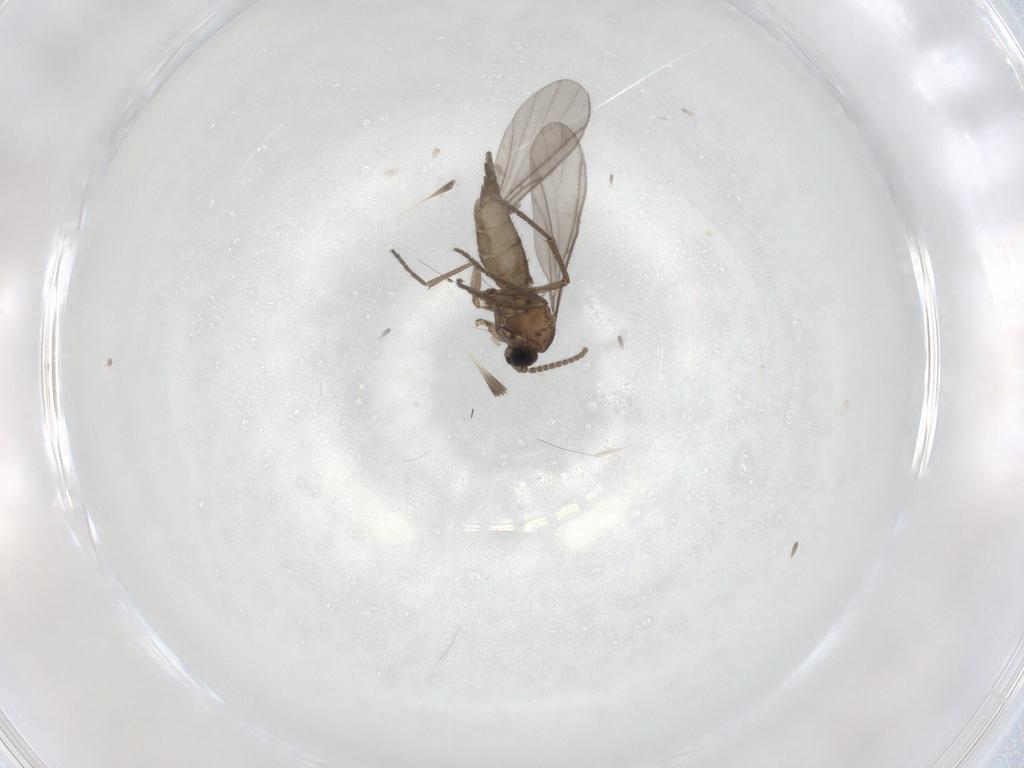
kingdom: Animalia
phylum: Arthropoda
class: Insecta
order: Diptera
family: Sciaridae
